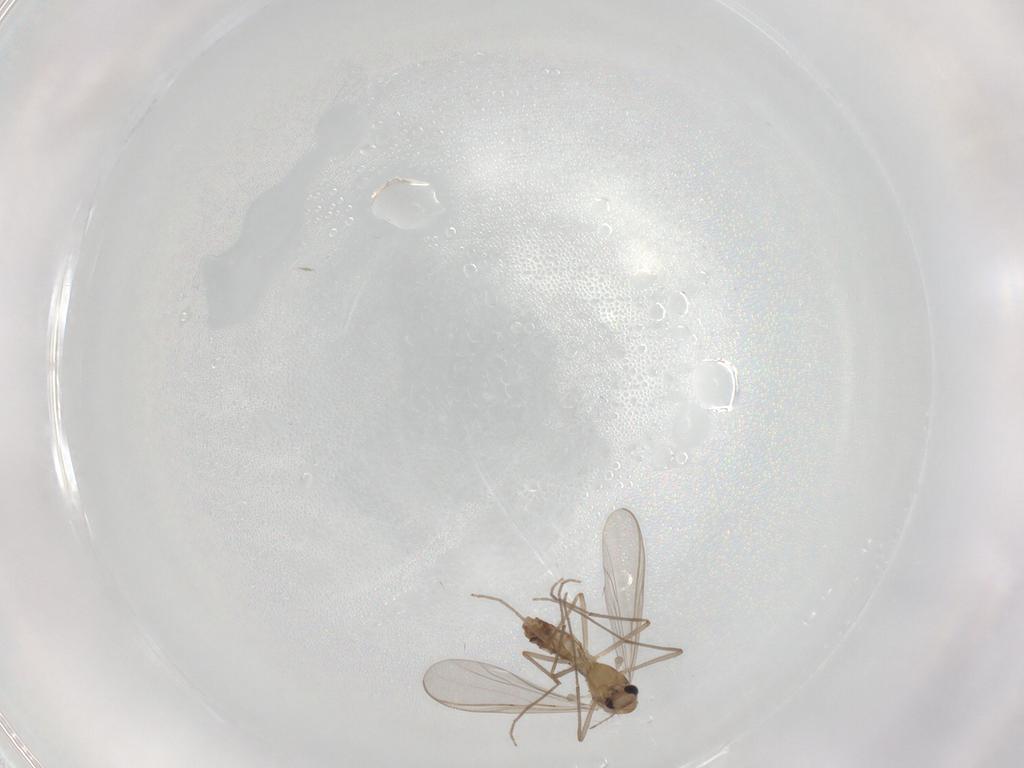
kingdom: Animalia
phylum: Arthropoda
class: Insecta
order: Diptera
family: Chironomidae
